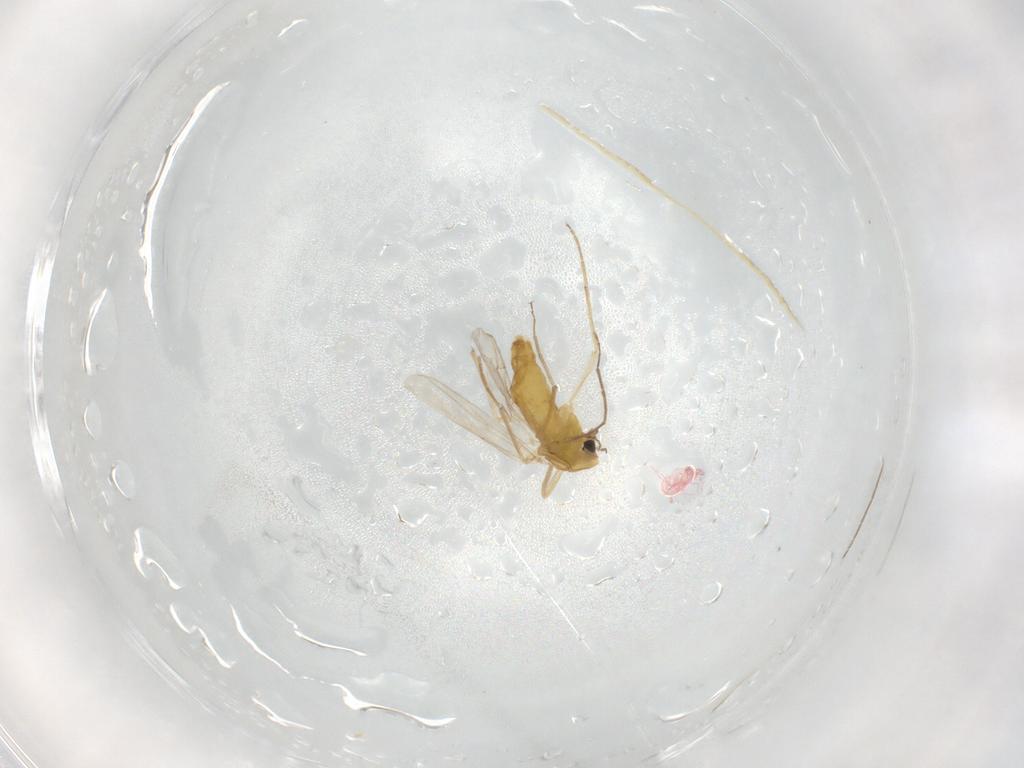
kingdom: Animalia
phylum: Arthropoda
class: Insecta
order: Diptera
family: Chironomidae
